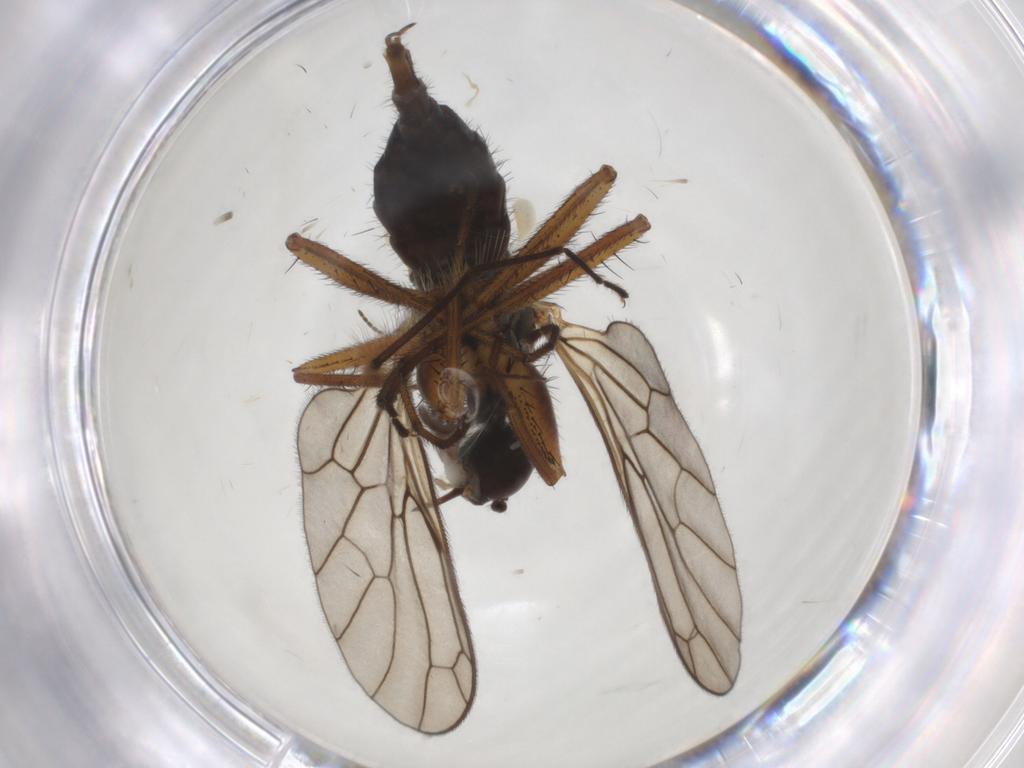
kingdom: Animalia
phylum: Arthropoda
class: Insecta
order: Diptera
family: Empididae
